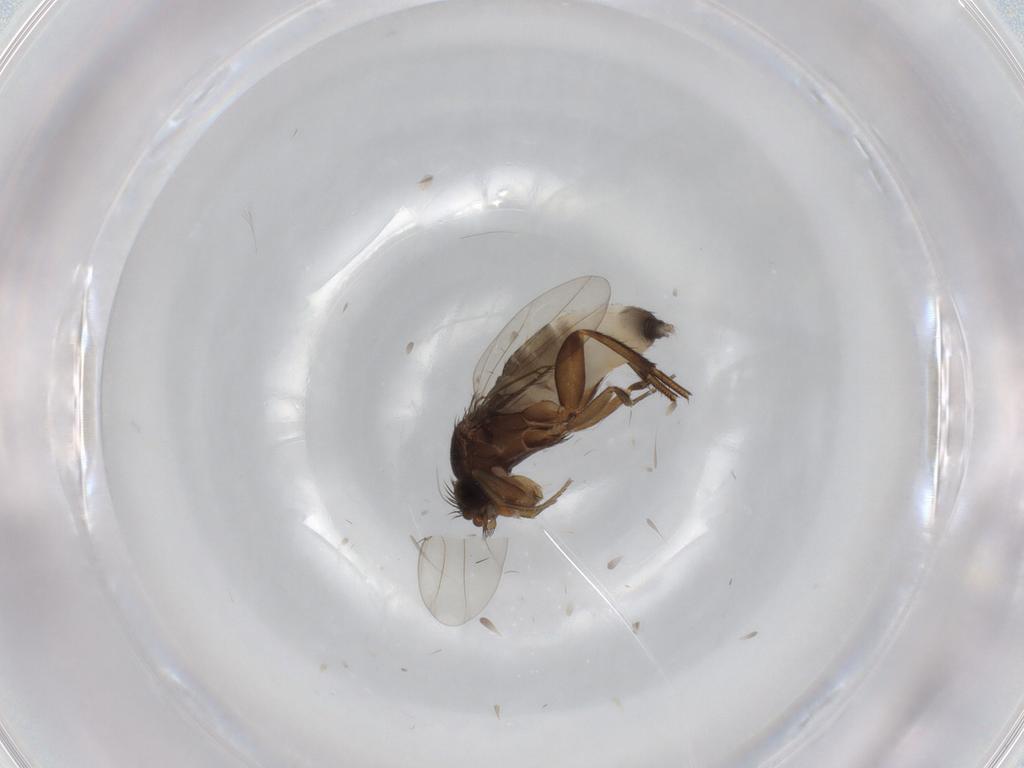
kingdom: Animalia
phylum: Arthropoda
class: Insecta
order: Diptera
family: Phoridae
